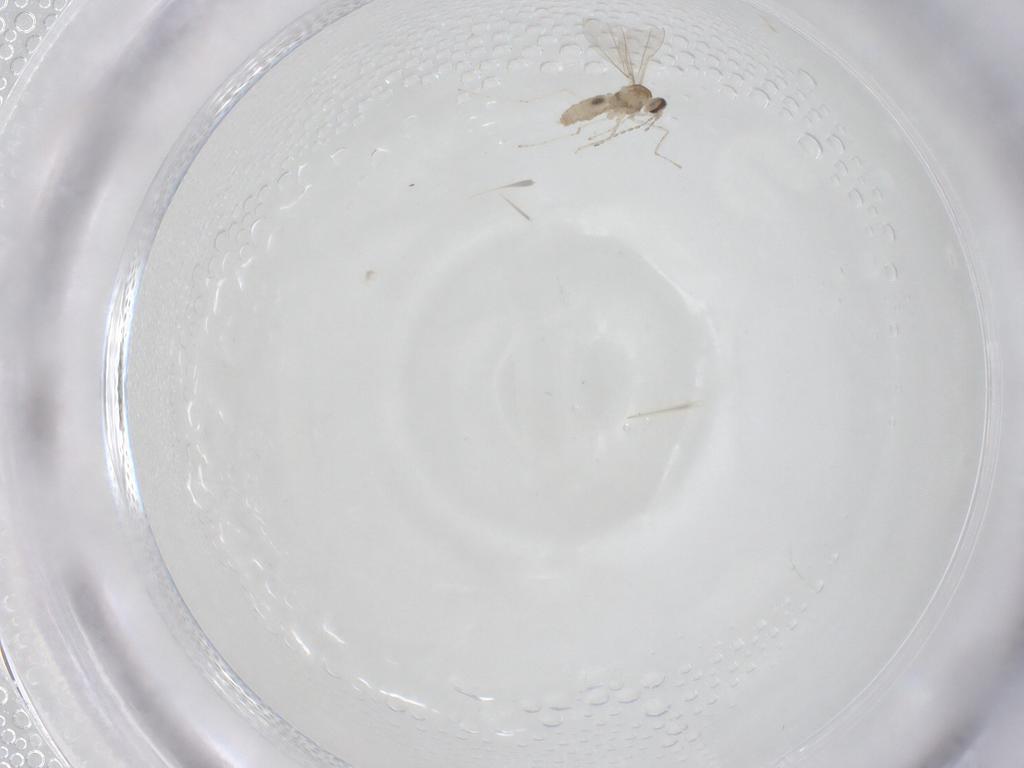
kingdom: Animalia
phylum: Arthropoda
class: Insecta
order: Diptera
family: Cecidomyiidae
